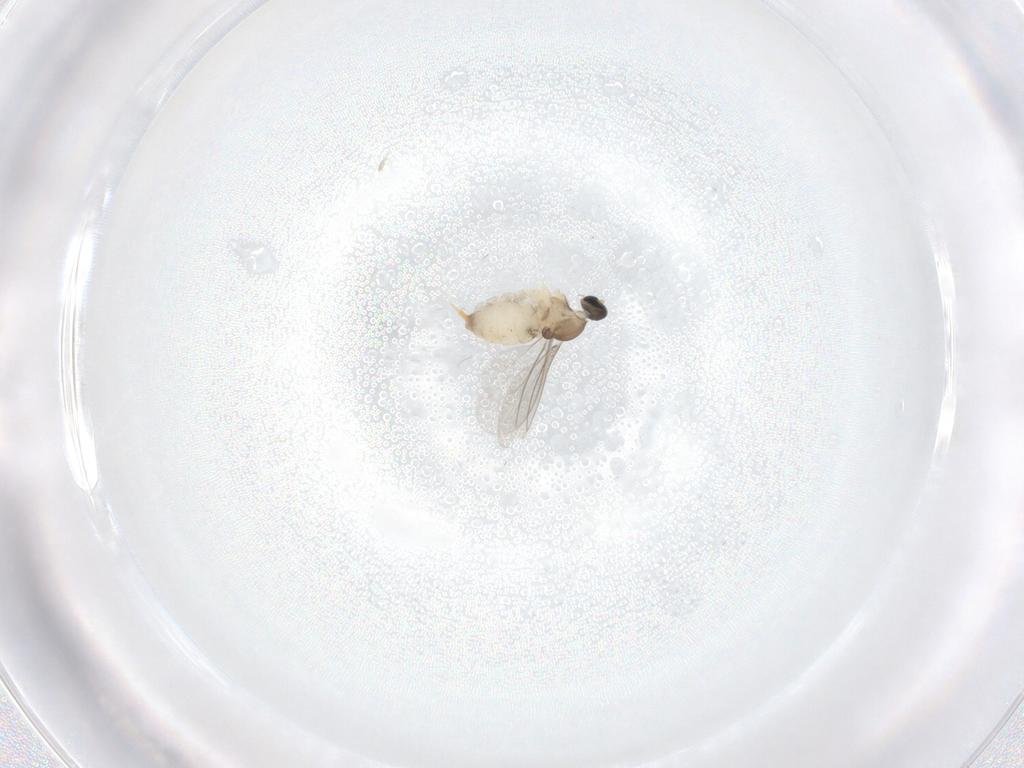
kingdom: Animalia
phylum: Arthropoda
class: Insecta
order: Diptera
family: Cecidomyiidae
